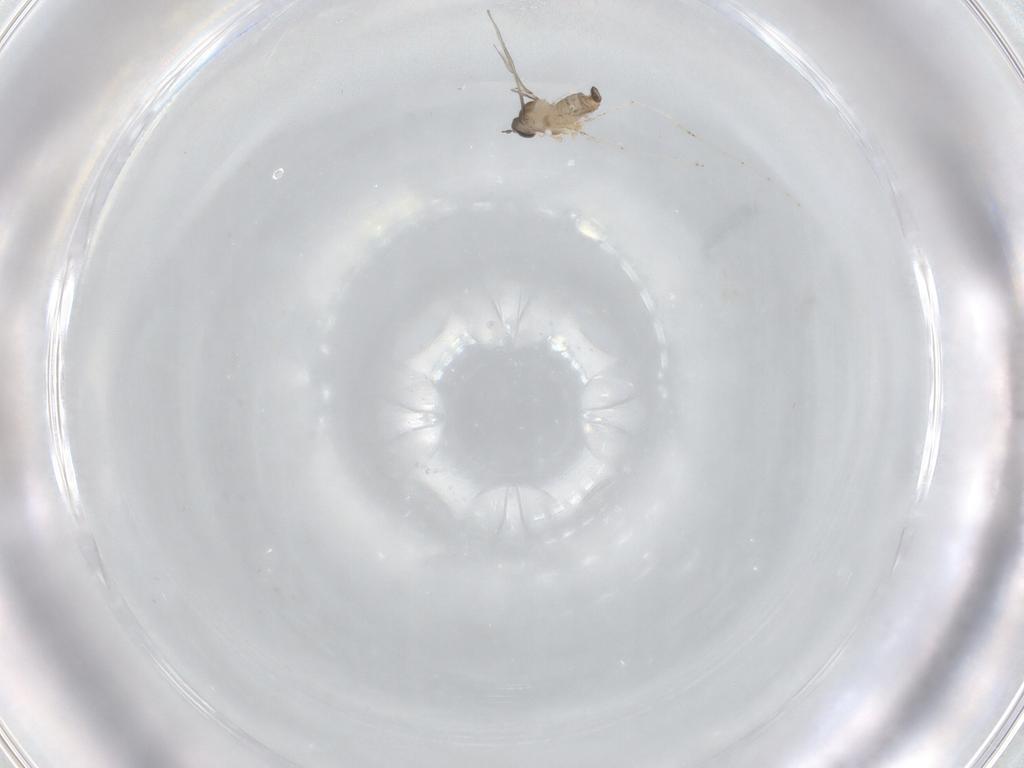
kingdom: Animalia
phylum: Arthropoda
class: Insecta
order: Diptera
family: Cecidomyiidae
